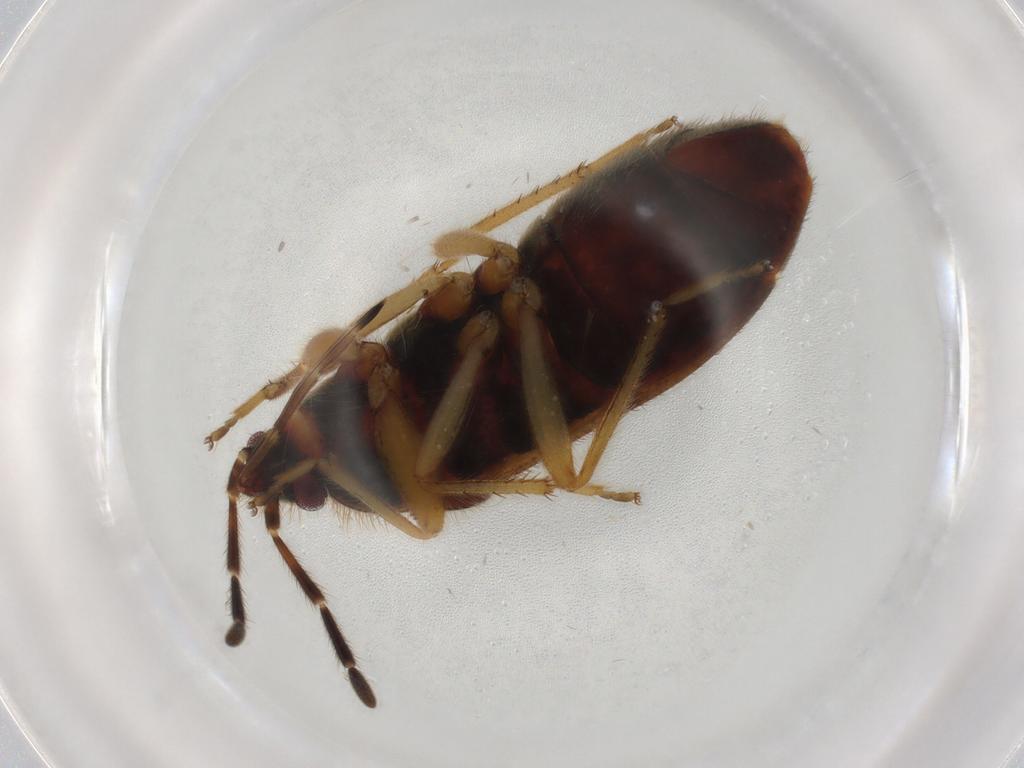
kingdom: Animalia
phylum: Arthropoda
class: Insecta
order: Hemiptera
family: Rhyparochromidae
